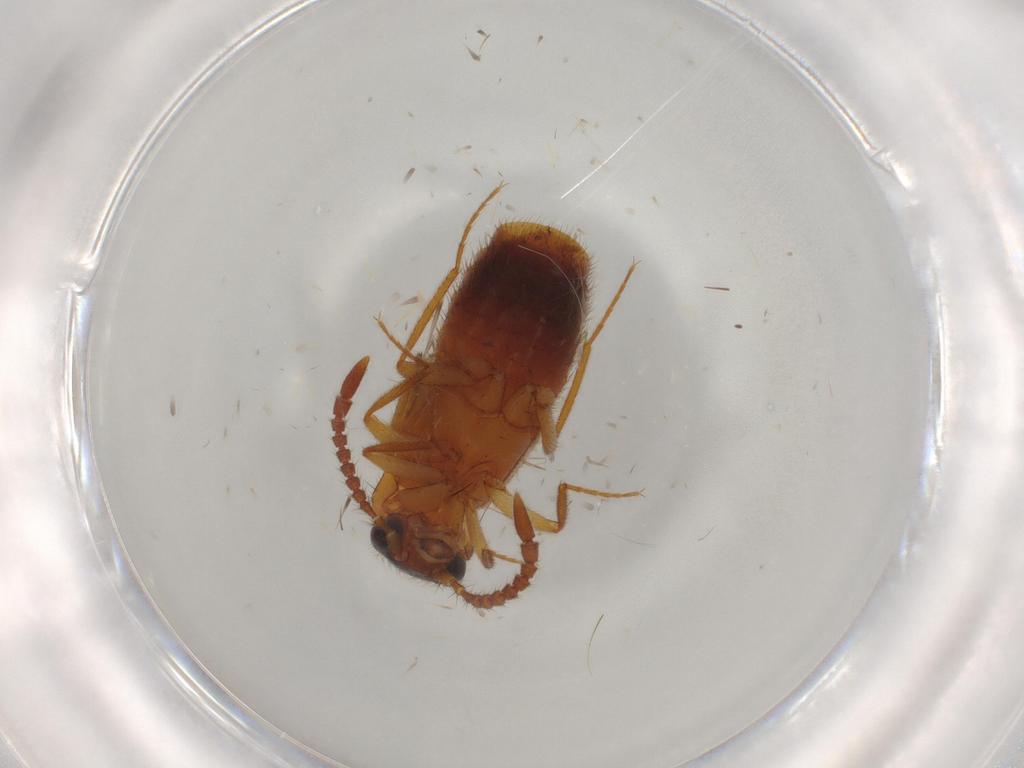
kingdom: Animalia
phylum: Arthropoda
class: Insecta
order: Coleoptera
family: Staphylinidae
